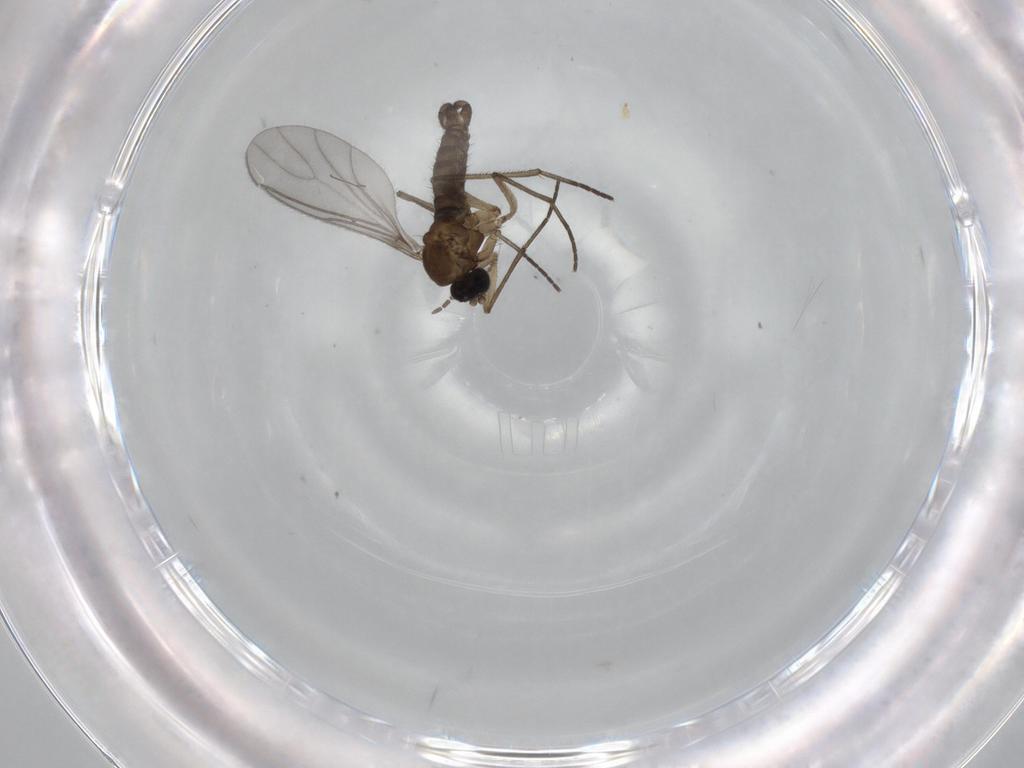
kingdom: Animalia
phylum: Arthropoda
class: Insecta
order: Diptera
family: Sciaridae
